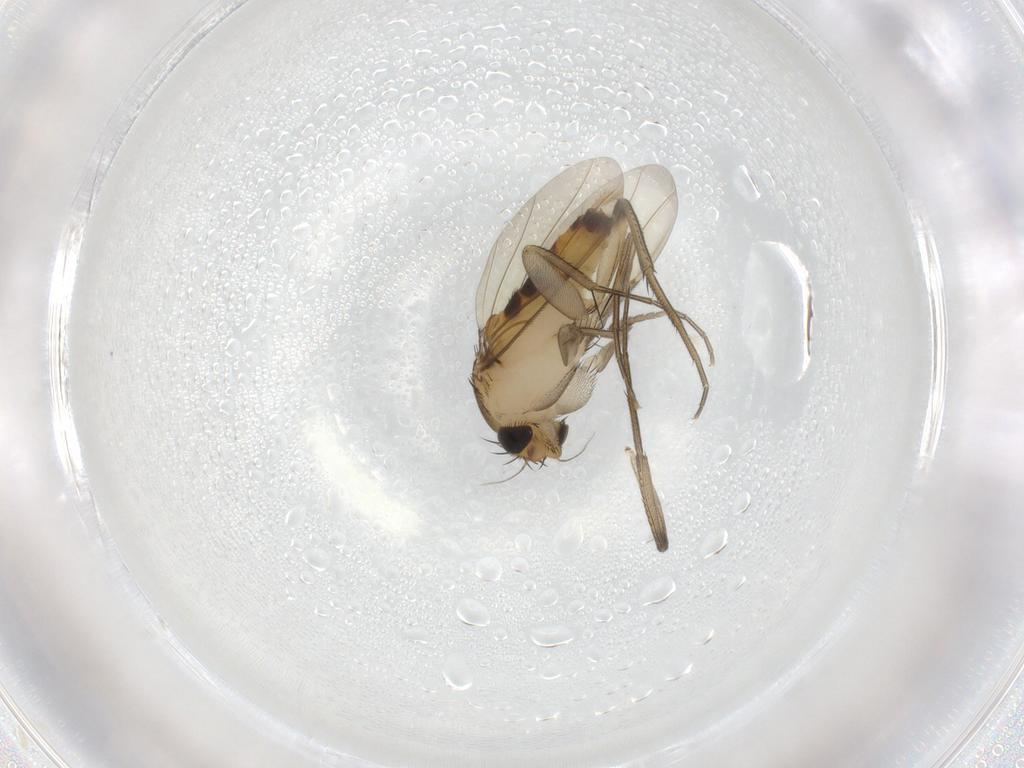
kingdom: Animalia
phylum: Arthropoda
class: Insecta
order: Diptera
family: Phoridae
